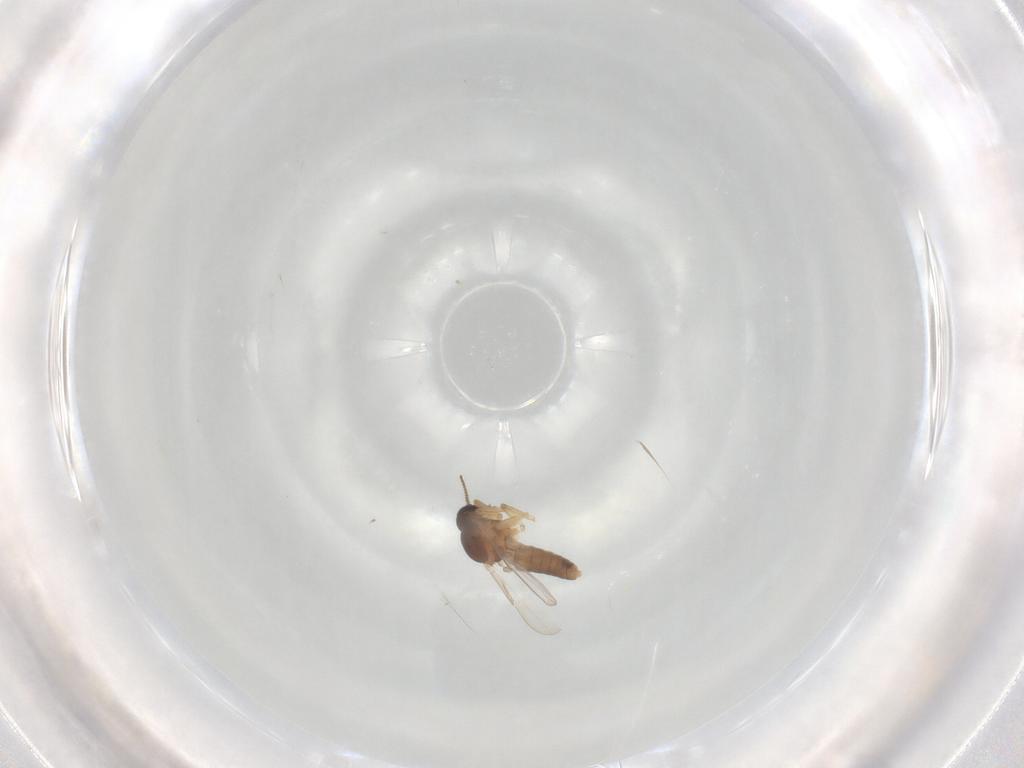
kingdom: Animalia
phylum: Arthropoda
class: Insecta
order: Diptera
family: Ceratopogonidae
